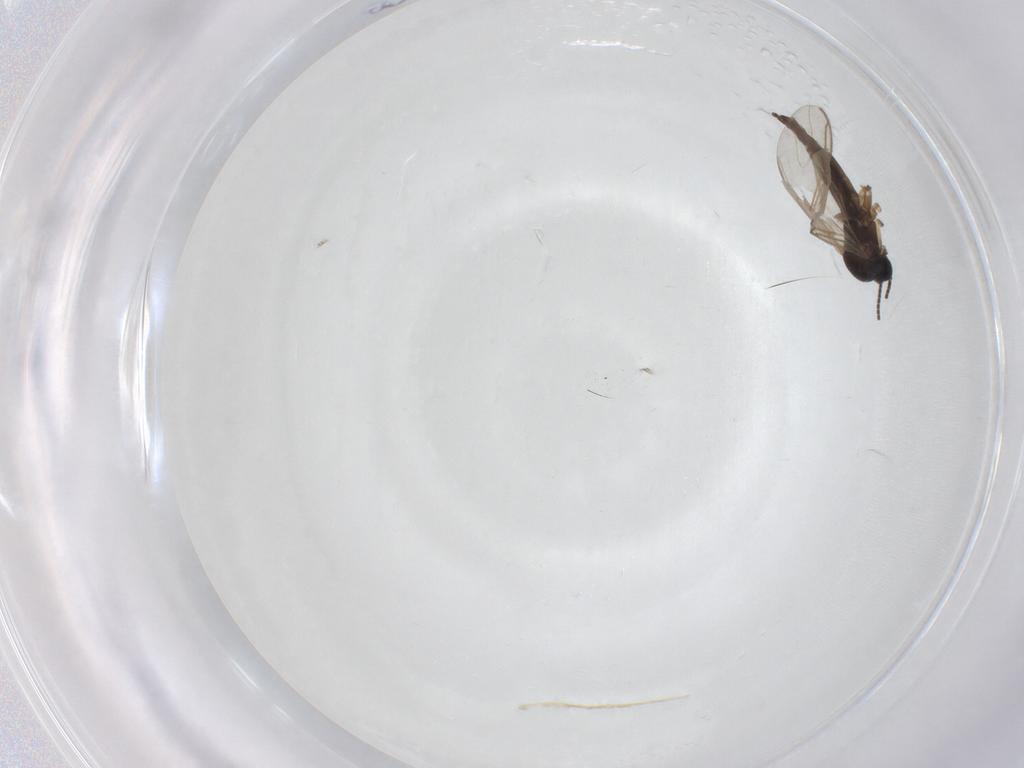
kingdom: Animalia
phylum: Arthropoda
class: Insecta
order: Diptera
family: Sciaridae
